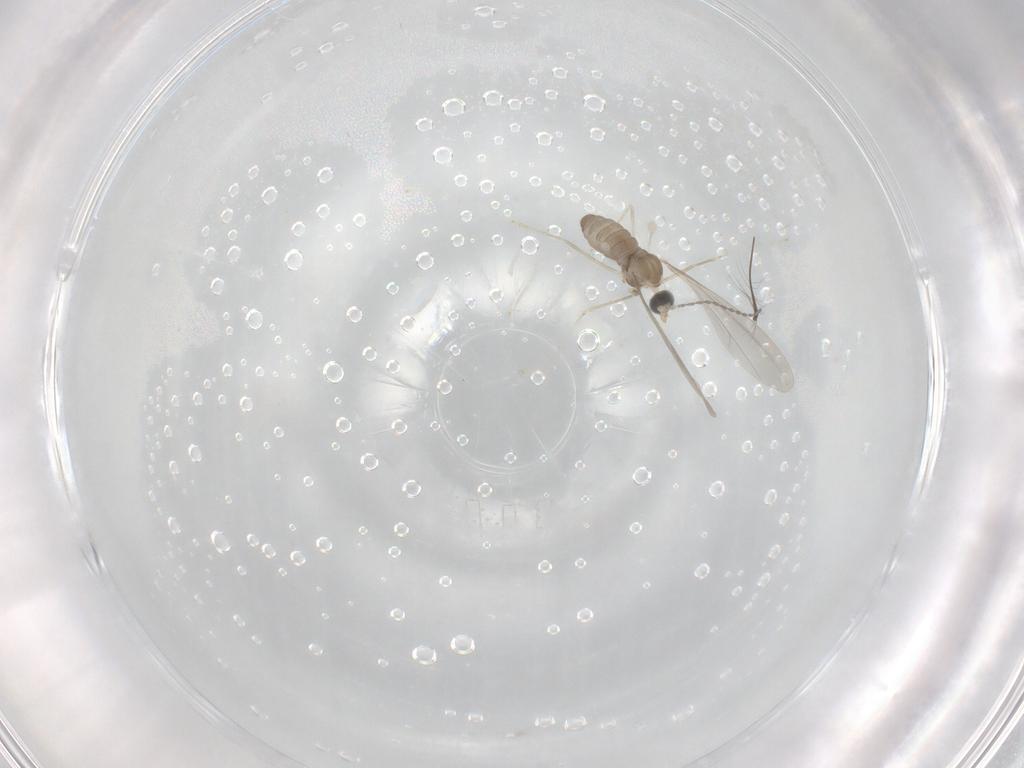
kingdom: Animalia
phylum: Arthropoda
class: Insecta
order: Diptera
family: Cecidomyiidae
